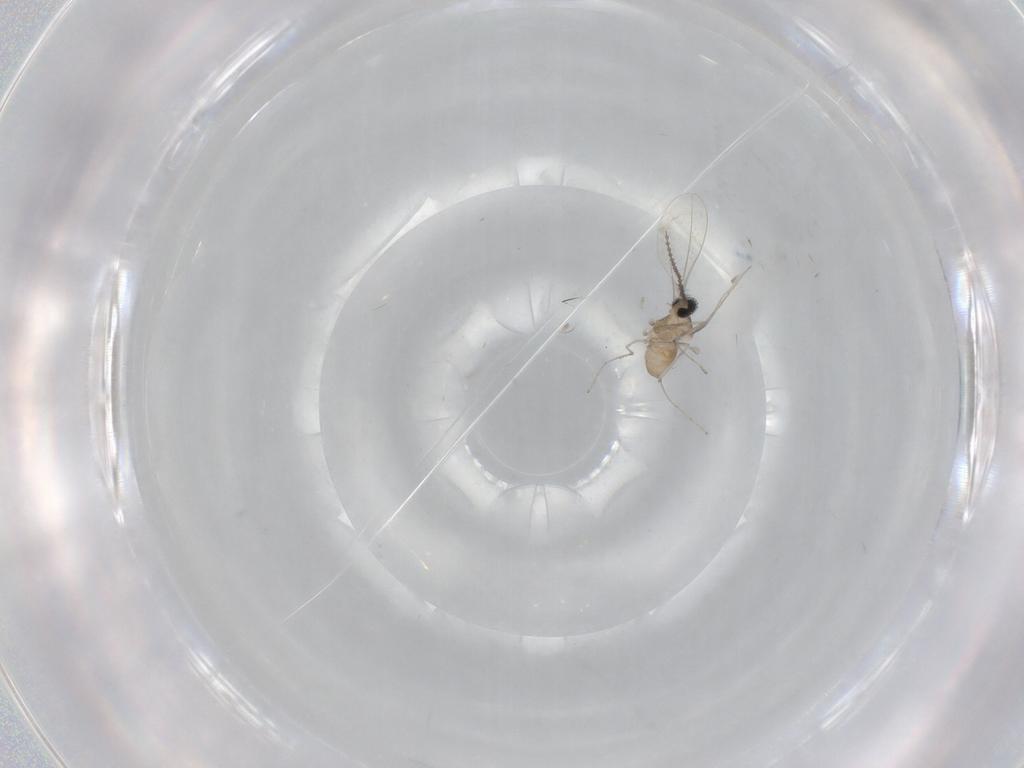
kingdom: Animalia
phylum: Arthropoda
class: Insecta
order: Diptera
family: Cecidomyiidae
